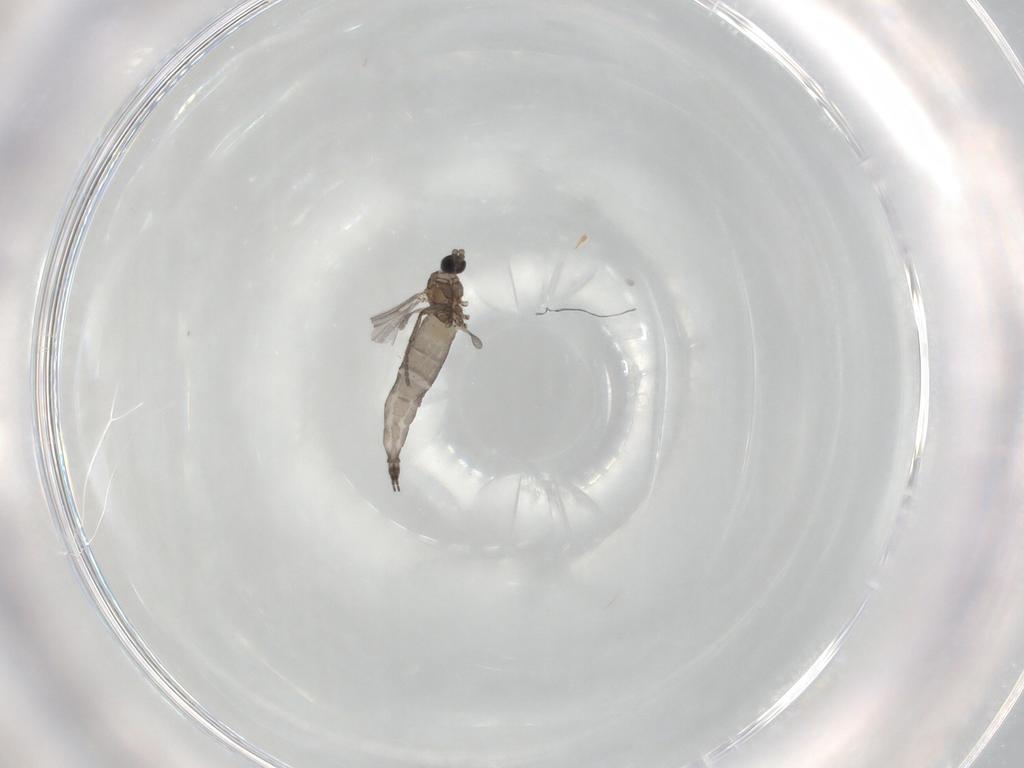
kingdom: Animalia
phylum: Arthropoda
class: Insecta
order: Diptera
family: Sciaridae
